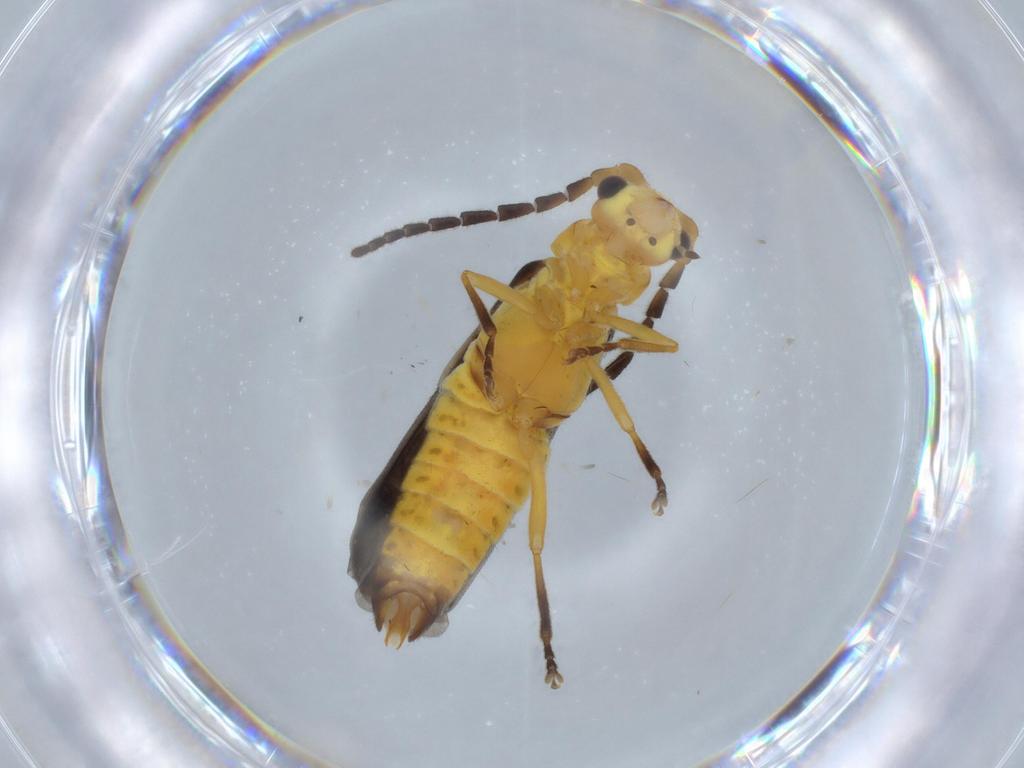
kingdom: Animalia
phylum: Arthropoda
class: Insecta
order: Coleoptera
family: Cantharidae
